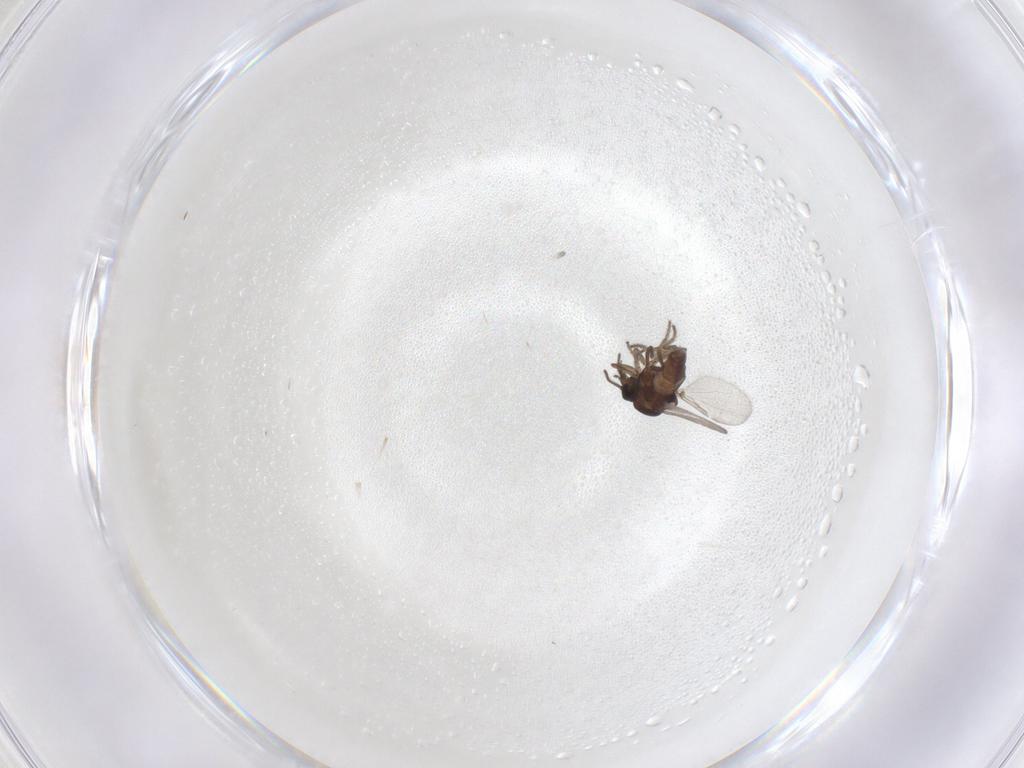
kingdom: Animalia
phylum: Arthropoda
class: Insecta
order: Diptera
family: Ceratopogonidae
